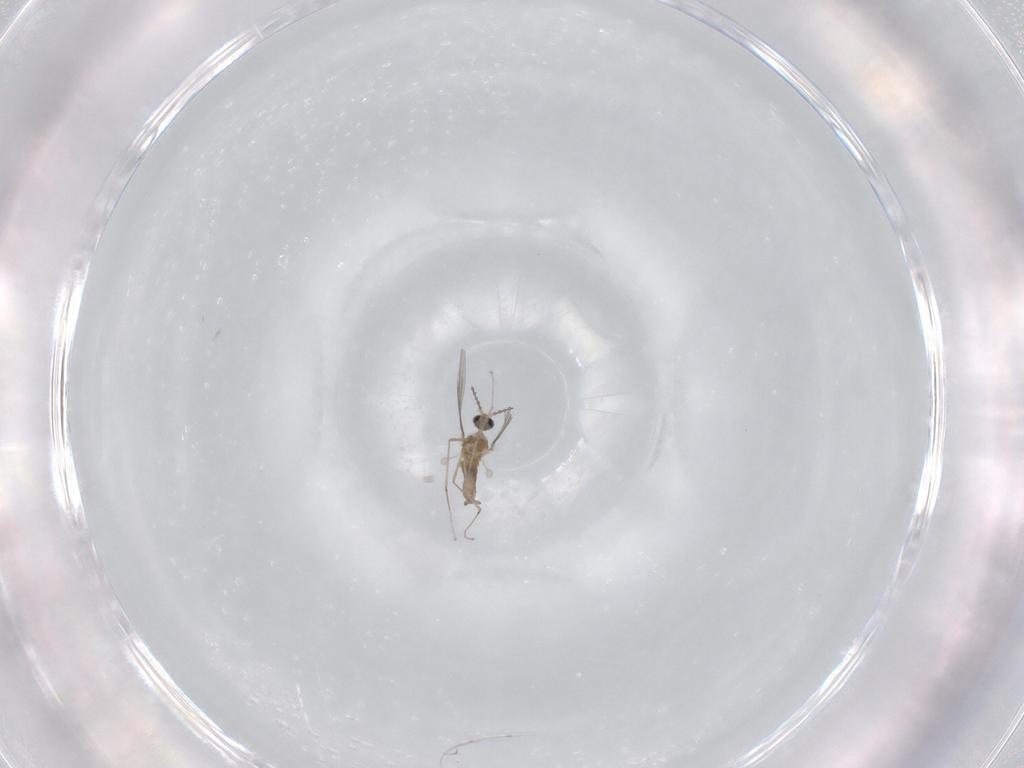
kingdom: Animalia
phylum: Arthropoda
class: Insecta
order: Diptera
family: Cecidomyiidae
